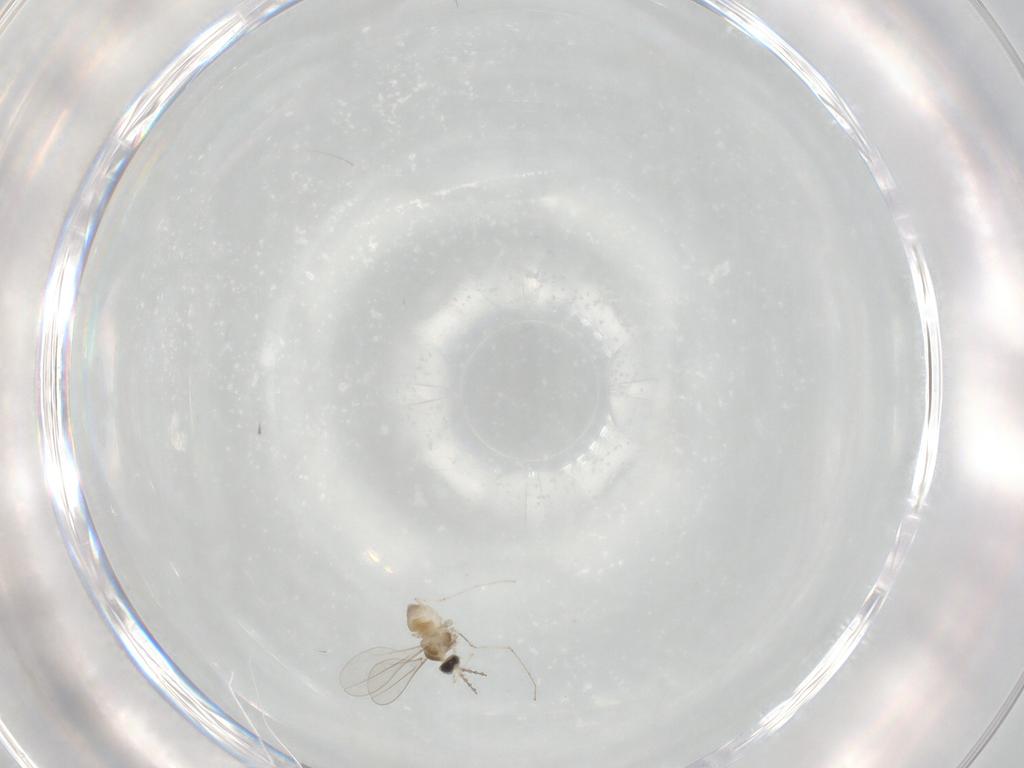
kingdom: Animalia
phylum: Arthropoda
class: Insecta
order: Diptera
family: Cecidomyiidae
